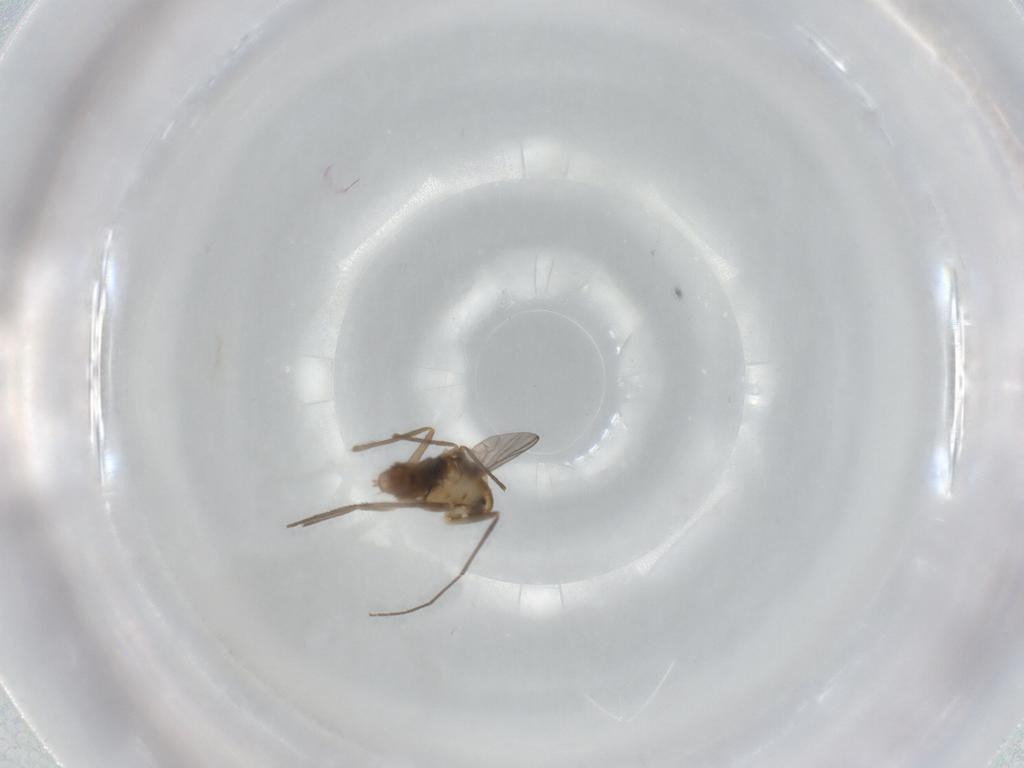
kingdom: Animalia
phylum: Arthropoda
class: Insecta
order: Diptera
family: Chironomidae
